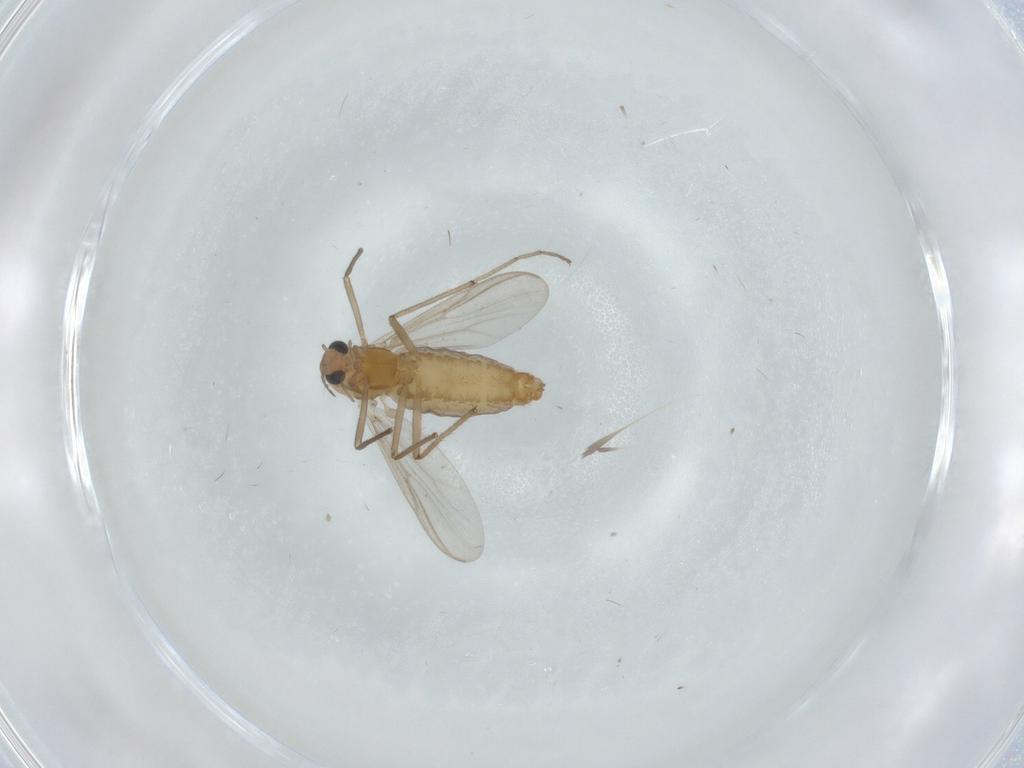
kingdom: Animalia
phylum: Arthropoda
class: Insecta
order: Diptera
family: Chironomidae
